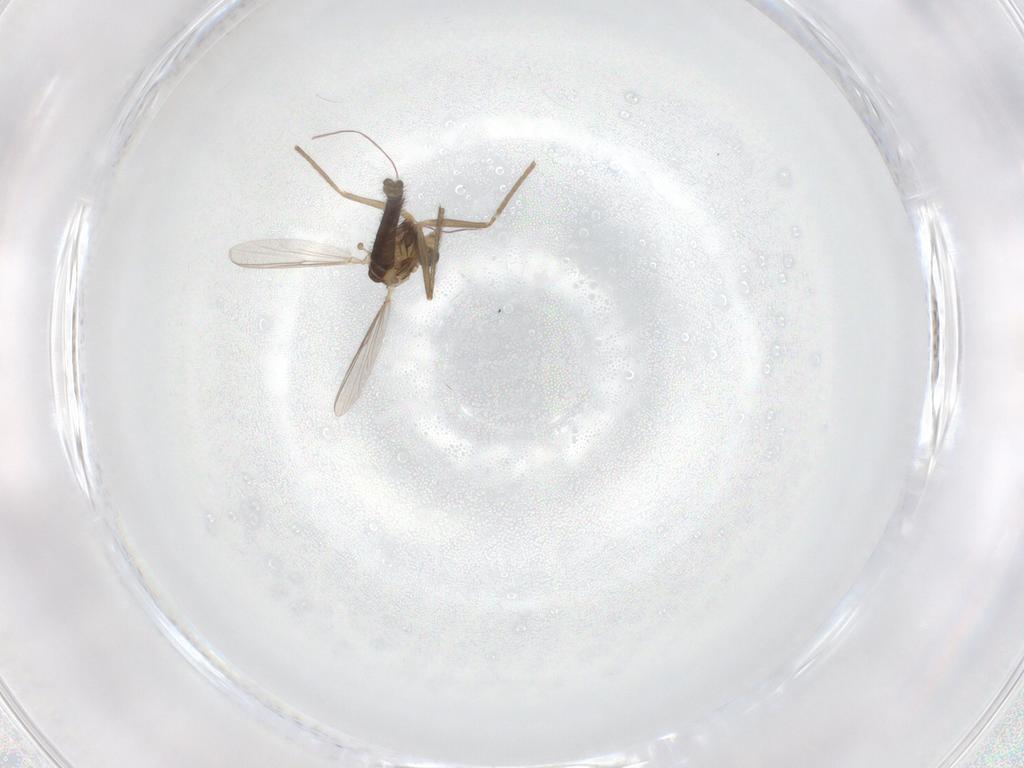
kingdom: Animalia
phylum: Arthropoda
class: Insecta
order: Diptera
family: Chironomidae
